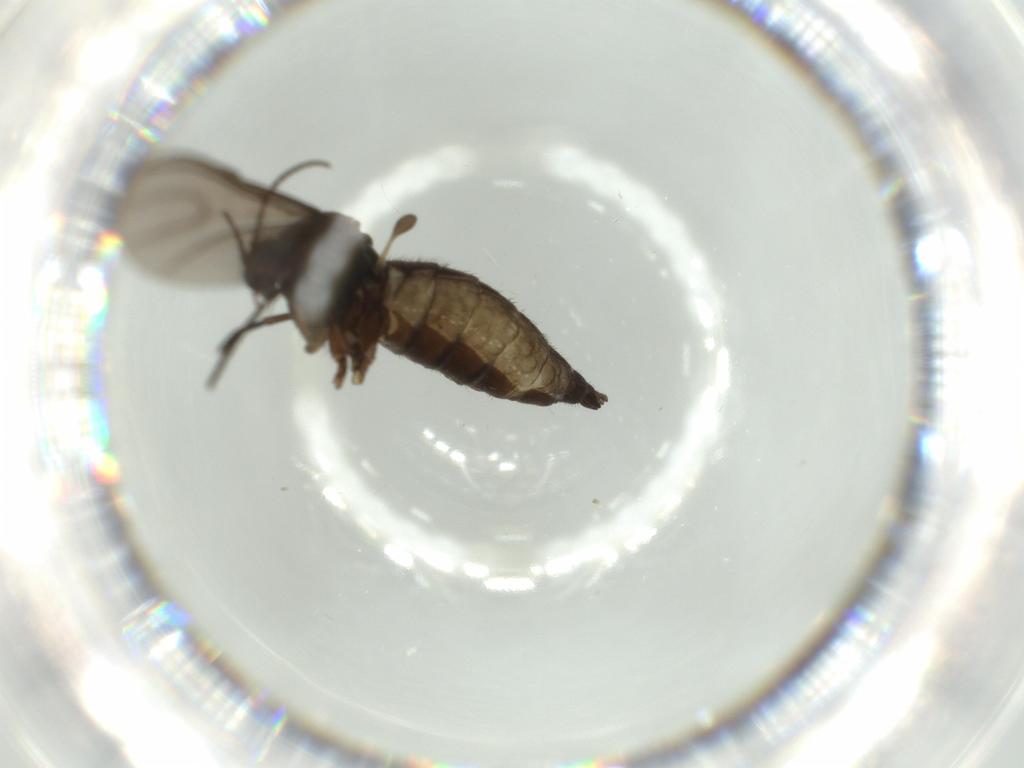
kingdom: Animalia
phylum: Arthropoda
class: Insecta
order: Diptera
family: Sciaridae
